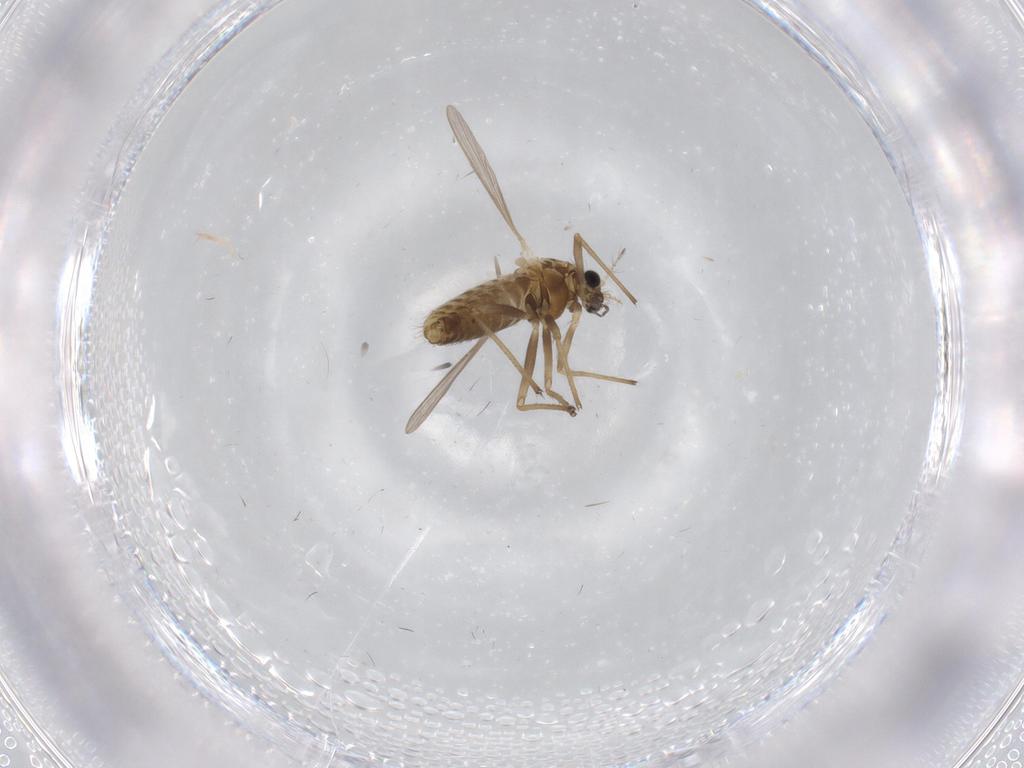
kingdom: Animalia
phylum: Arthropoda
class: Insecta
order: Diptera
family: Chironomidae
